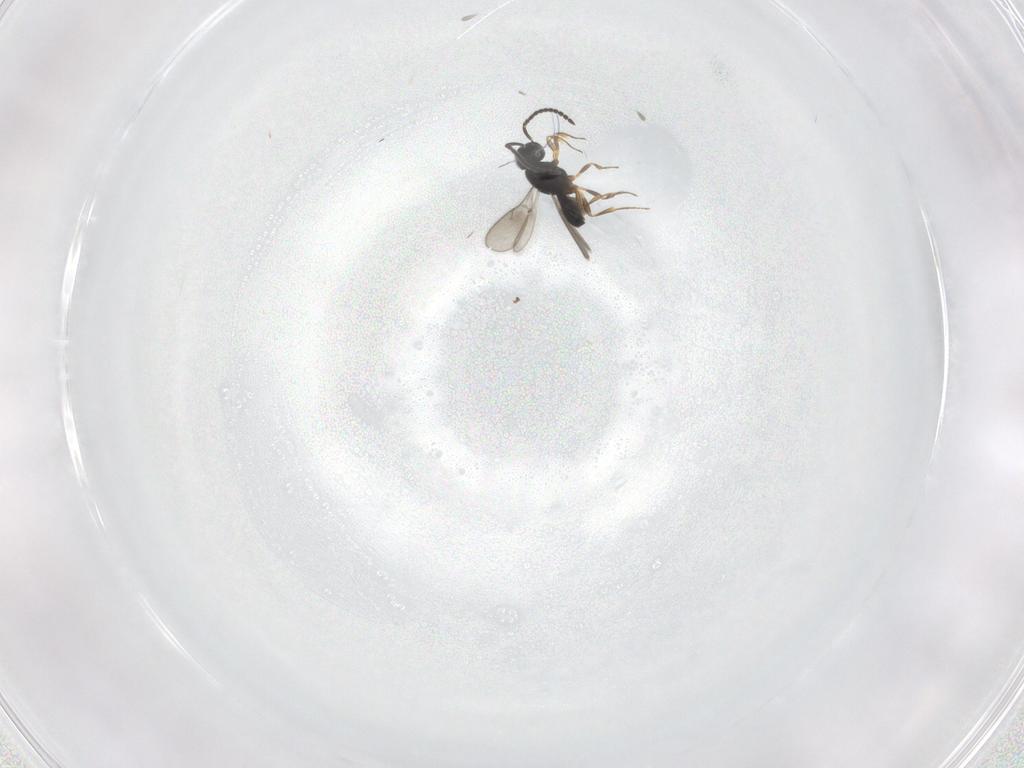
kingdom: Animalia
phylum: Arthropoda
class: Insecta
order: Hymenoptera
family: Scelionidae
